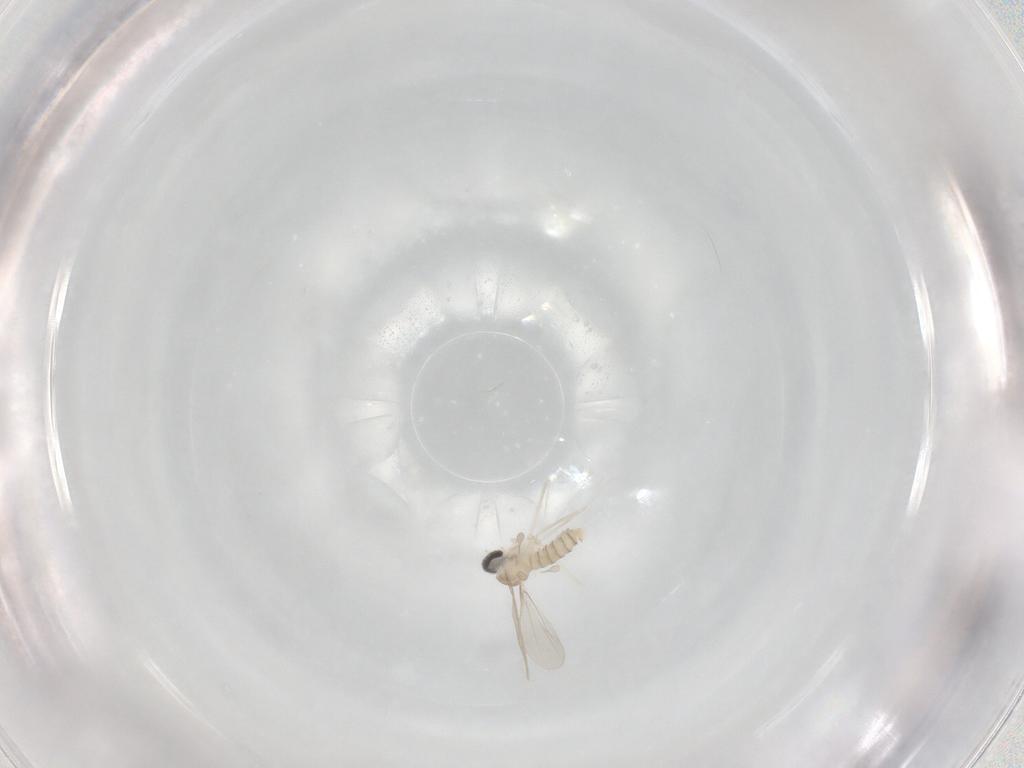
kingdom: Animalia
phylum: Arthropoda
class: Insecta
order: Diptera
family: Cecidomyiidae
